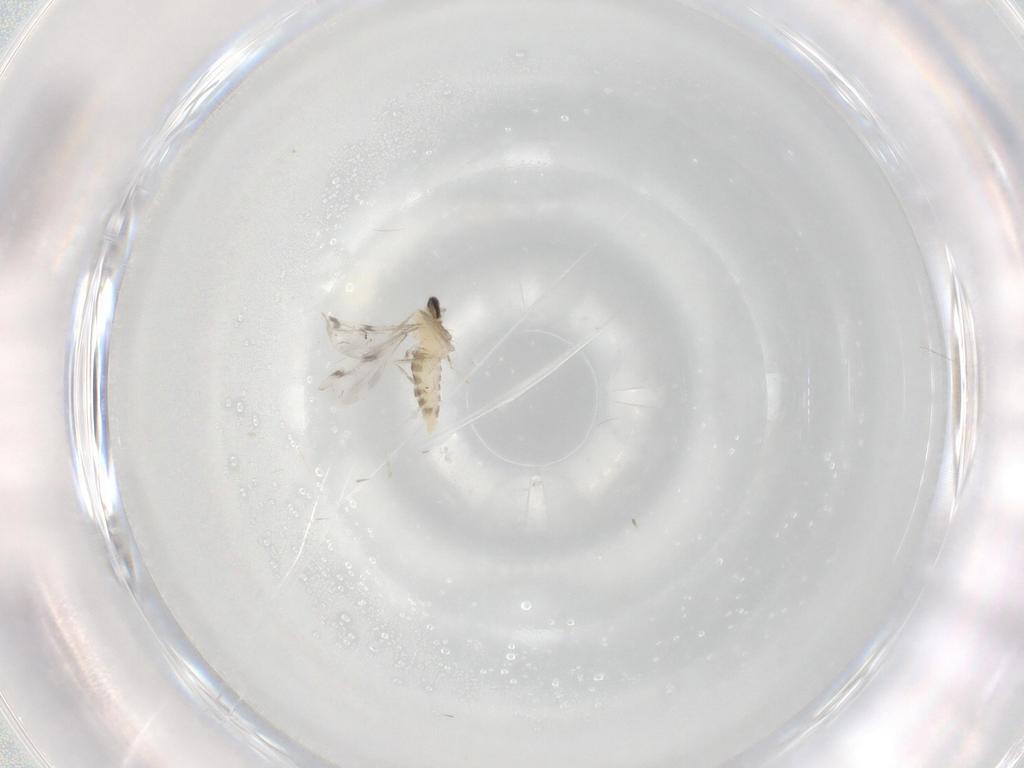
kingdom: Animalia
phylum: Arthropoda
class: Insecta
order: Diptera
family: Cecidomyiidae
